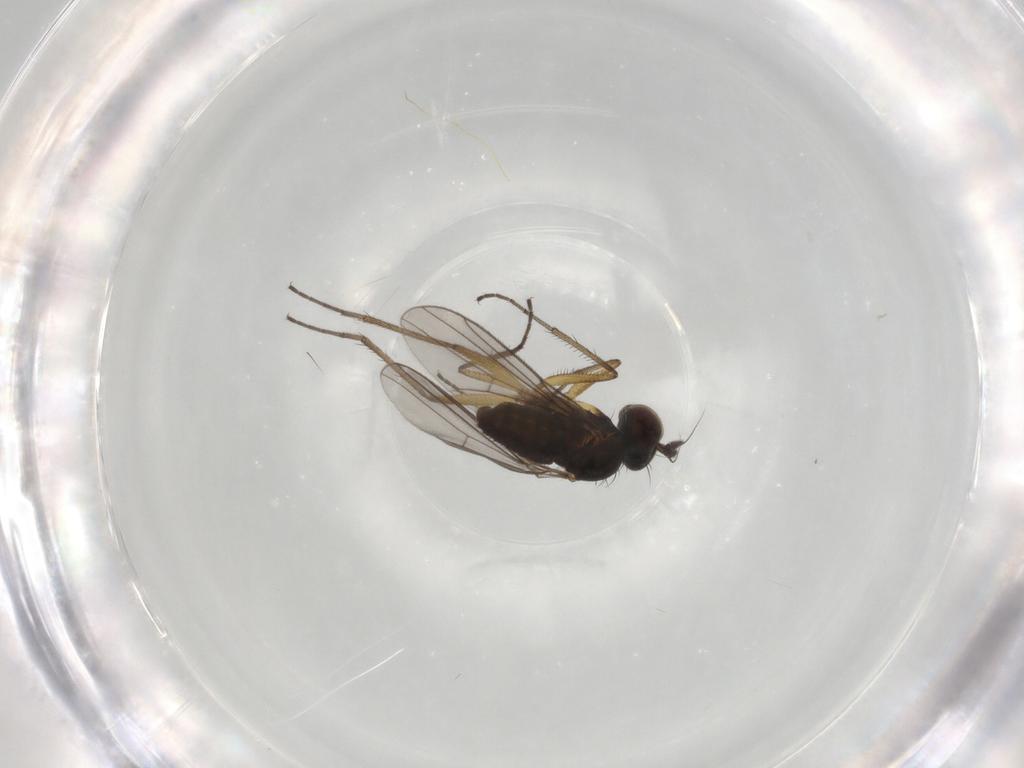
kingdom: Animalia
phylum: Arthropoda
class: Insecta
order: Diptera
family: Dolichopodidae
